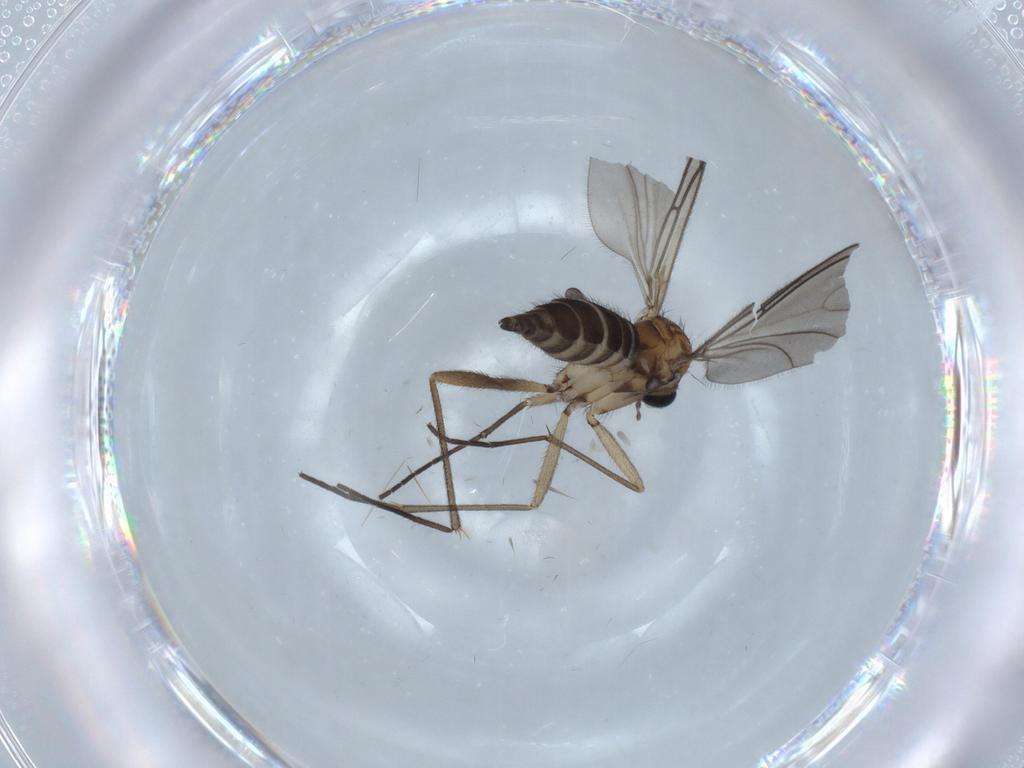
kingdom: Animalia
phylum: Arthropoda
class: Insecta
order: Diptera
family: Sciaridae
